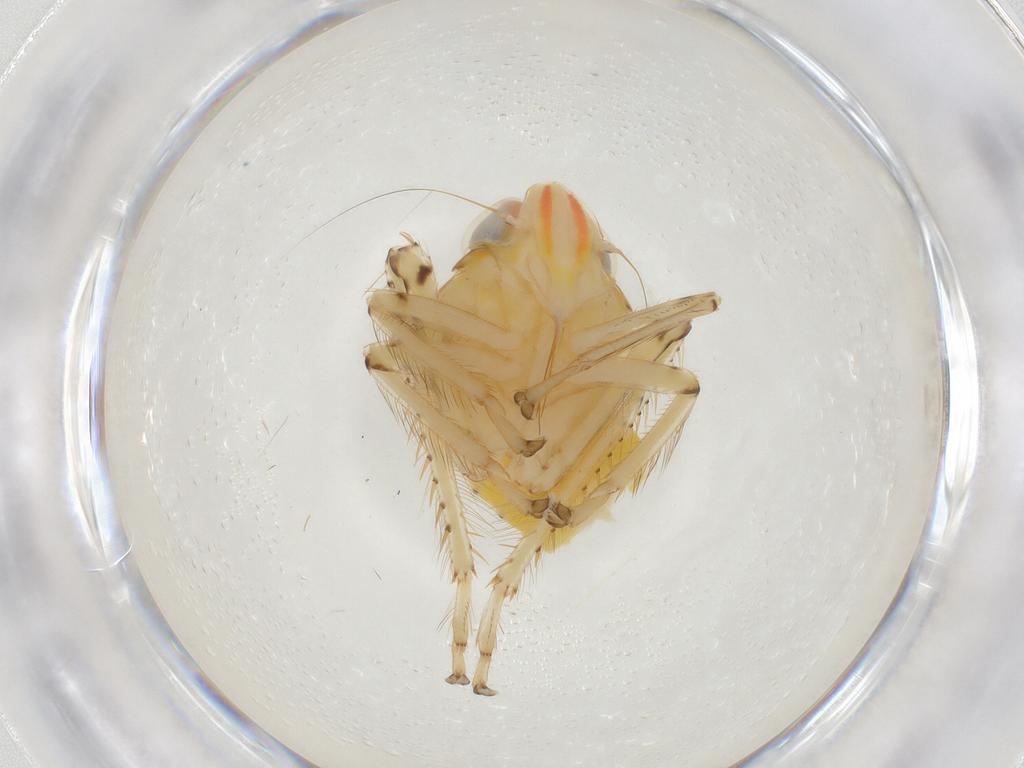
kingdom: Animalia
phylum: Arthropoda
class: Insecta
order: Hemiptera
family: Cicadellidae
